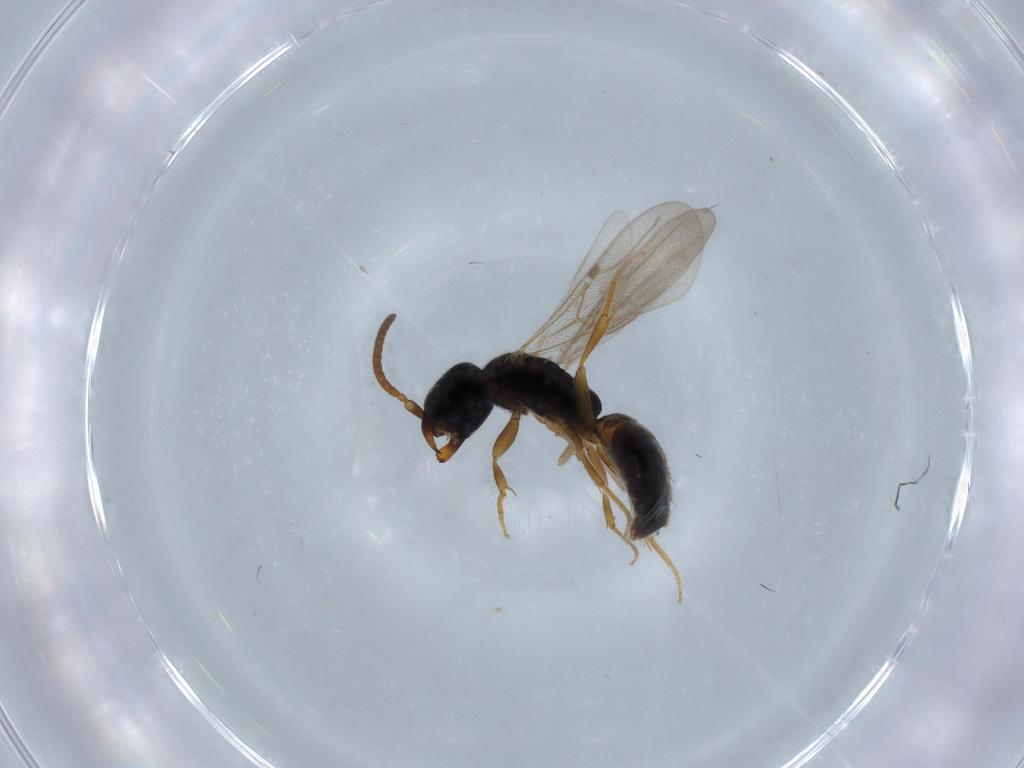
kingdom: Animalia
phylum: Arthropoda
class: Insecta
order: Hymenoptera
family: Bethylidae
